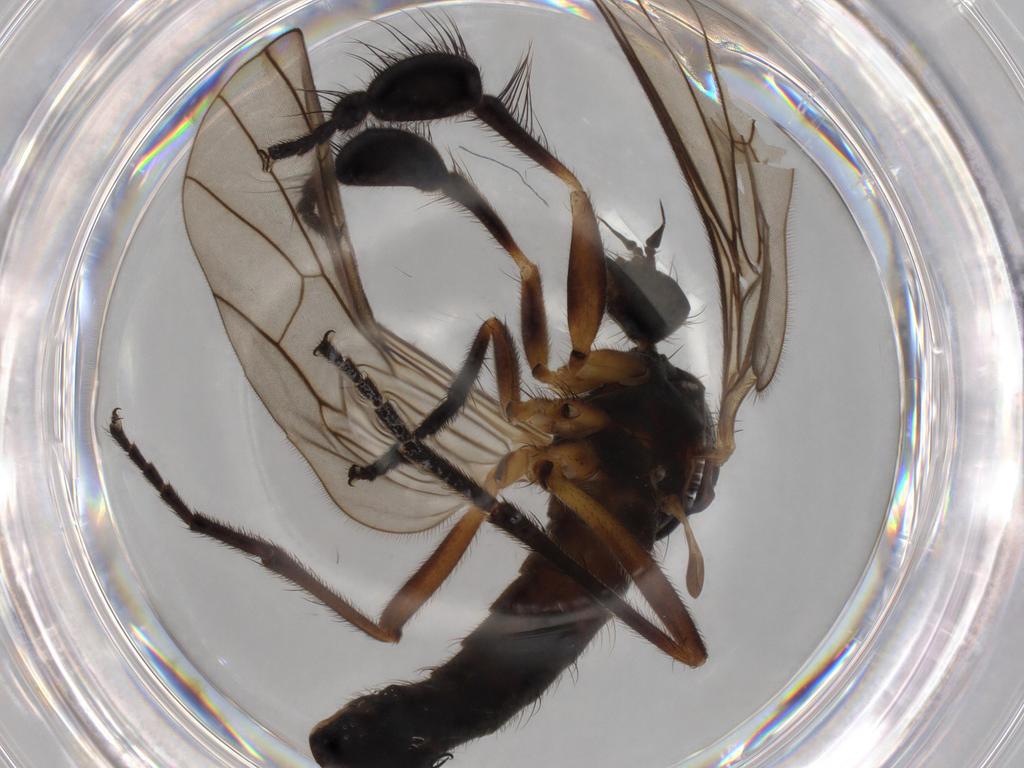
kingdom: Animalia
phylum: Arthropoda
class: Insecta
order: Diptera
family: Empididae
